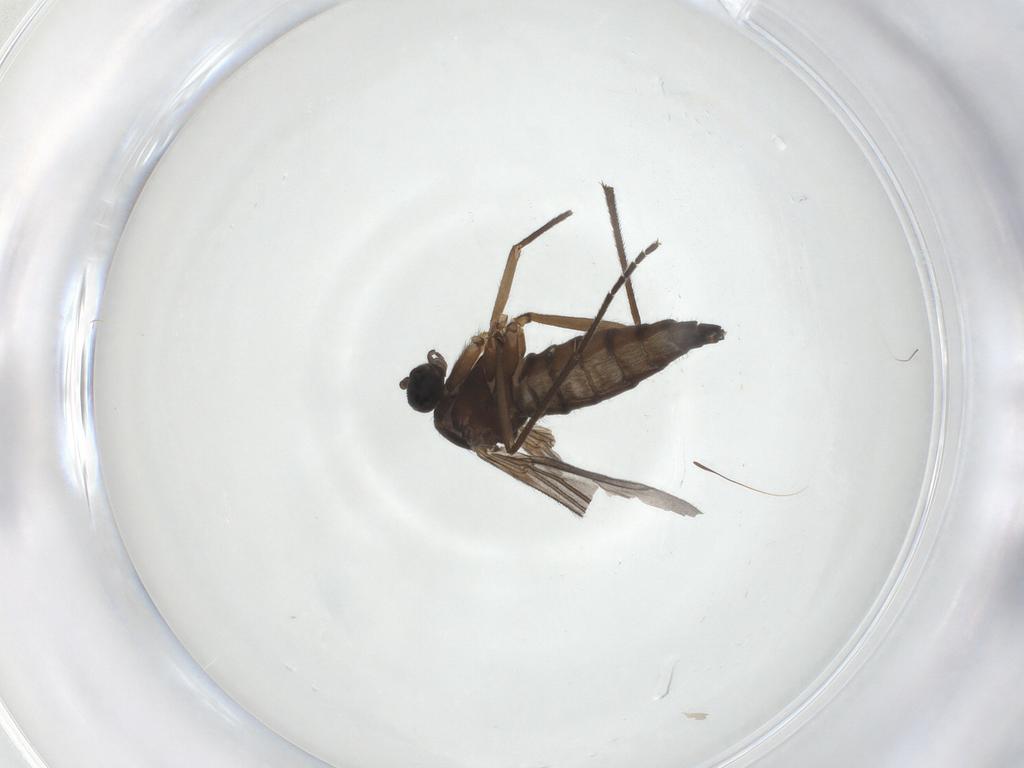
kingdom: Animalia
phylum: Arthropoda
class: Insecta
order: Diptera
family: Sciaridae
